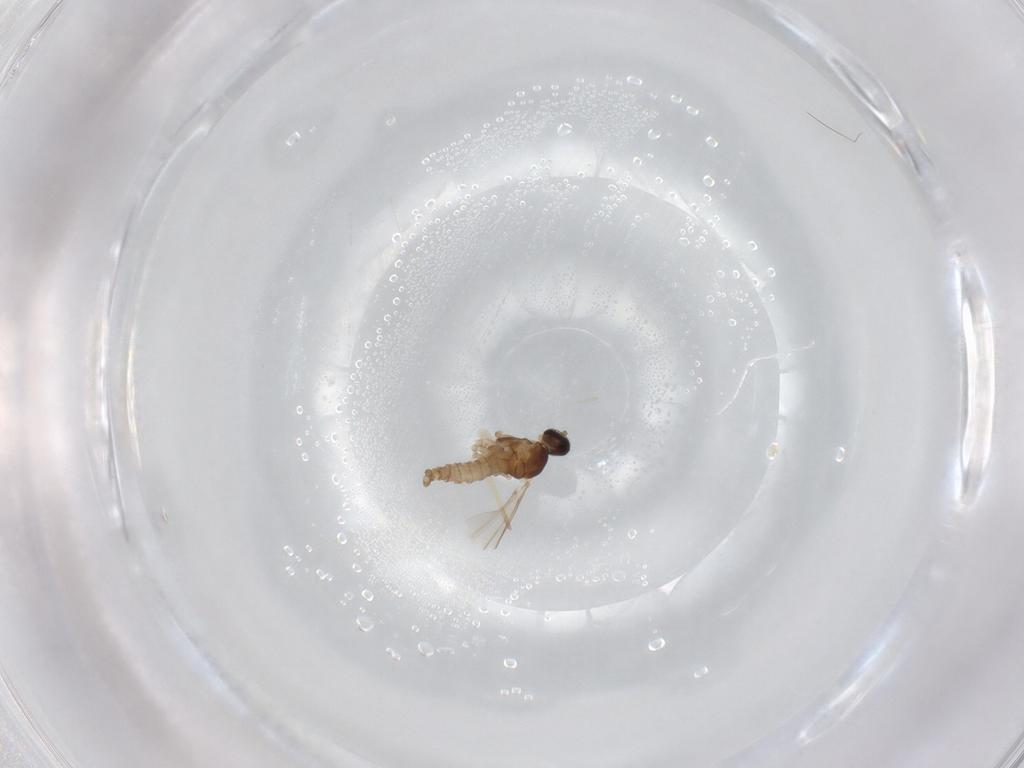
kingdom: Animalia
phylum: Arthropoda
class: Insecta
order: Diptera
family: Cecidomyiidae
